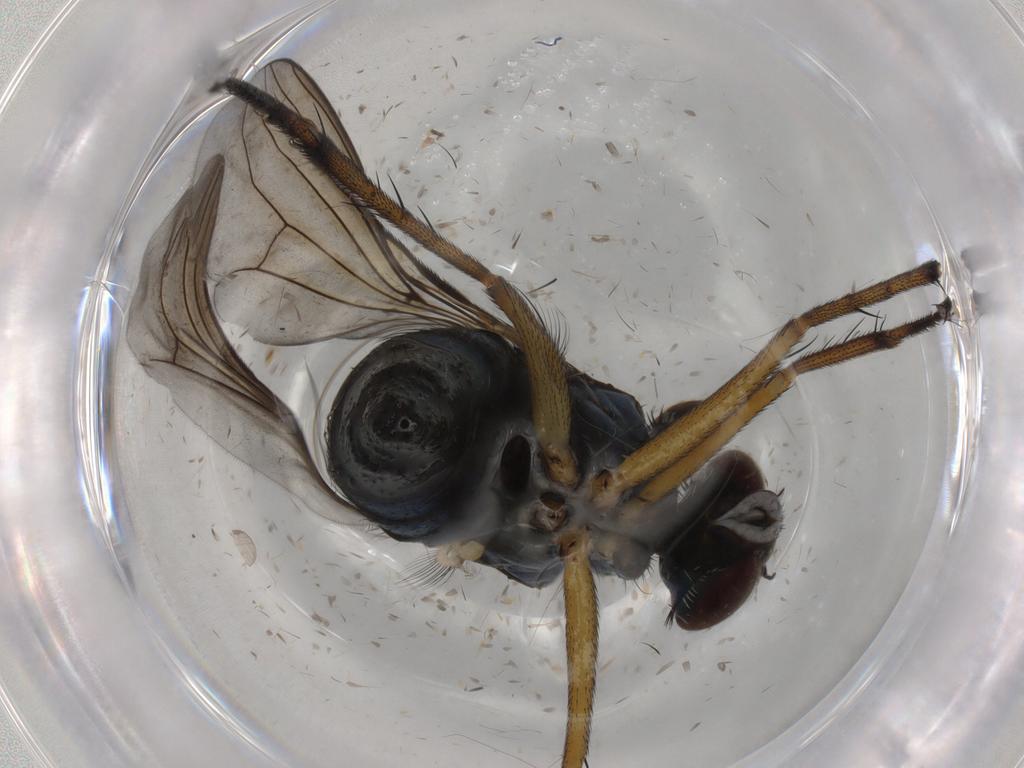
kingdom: Animalia
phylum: Arthropoda
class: Insecta
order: Diptera
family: Dolichopodidae
